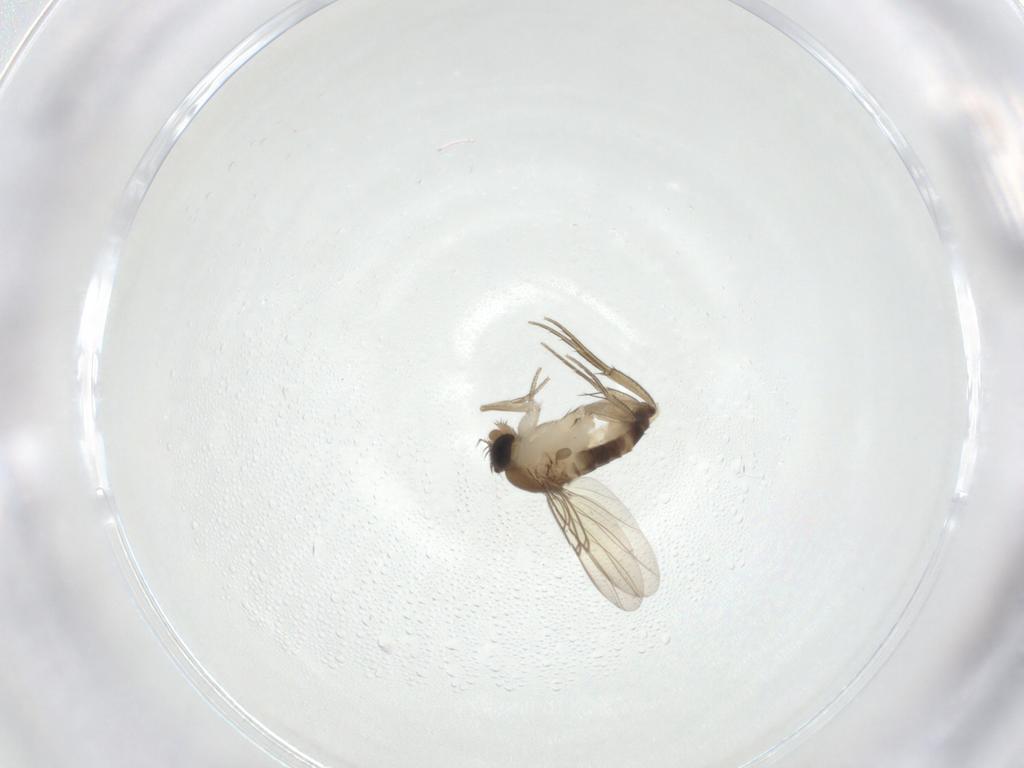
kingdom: Animalia
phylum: Arthropoda
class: Insecta
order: Diptera
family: Phoridae
